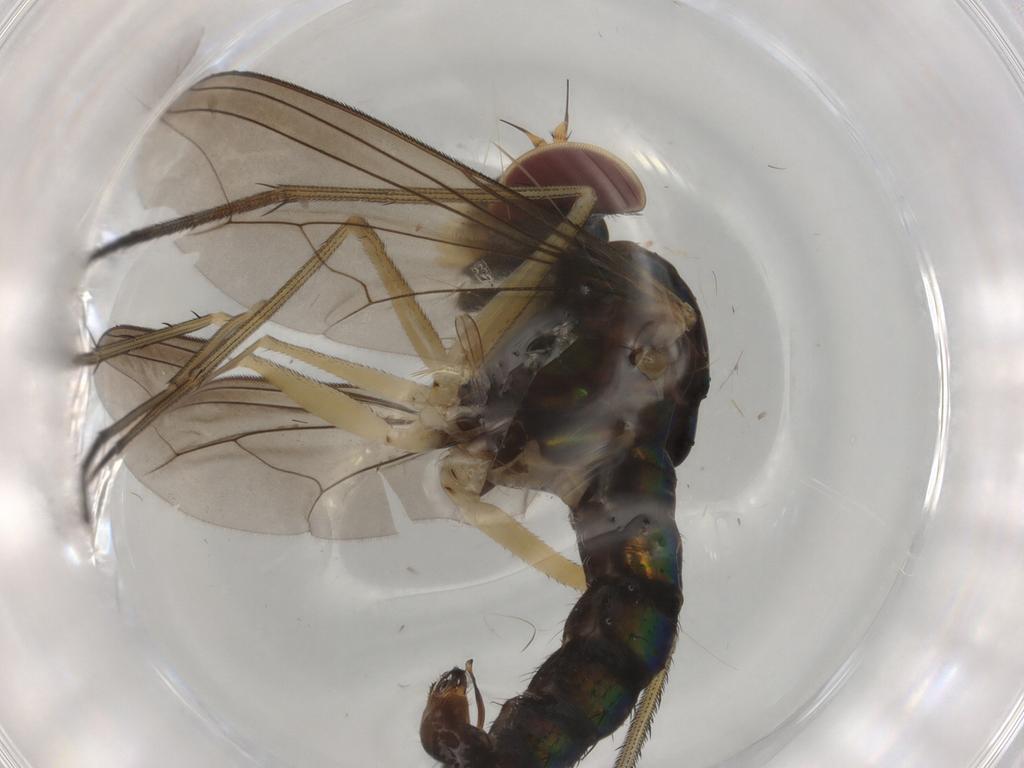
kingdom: Animalia
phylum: Arthropoda
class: Insecta
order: Diptera
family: Dolichopodidae
